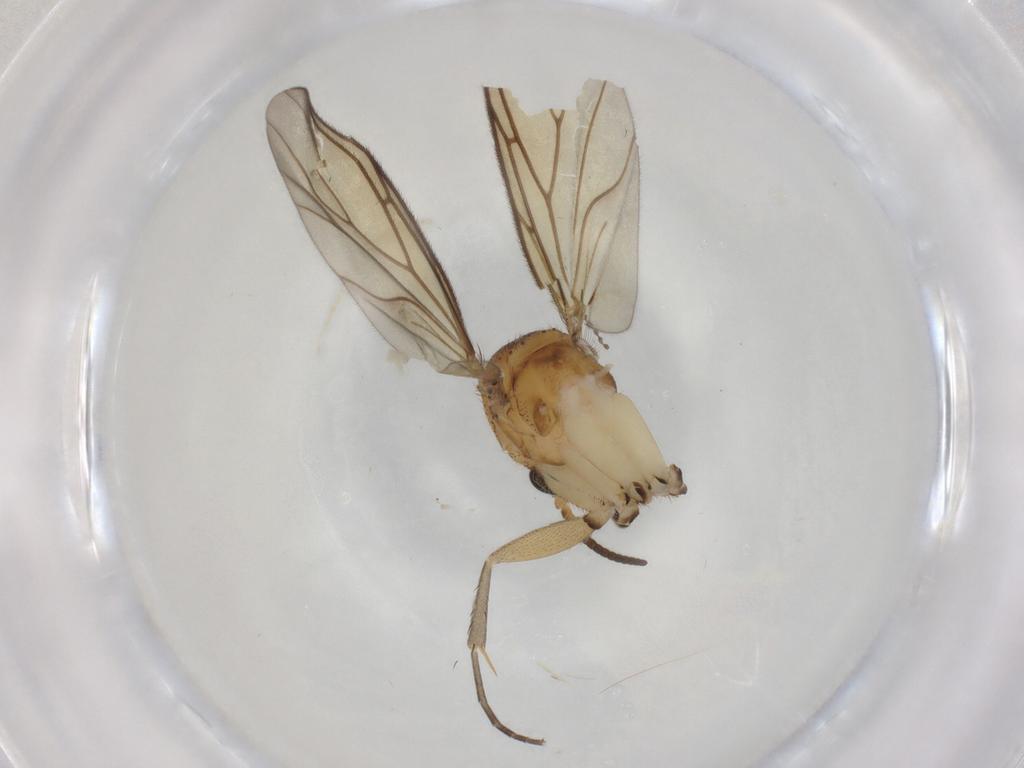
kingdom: Animalia
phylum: Arthropoda
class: Insecta
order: Diptera
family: Mycetophilidae
